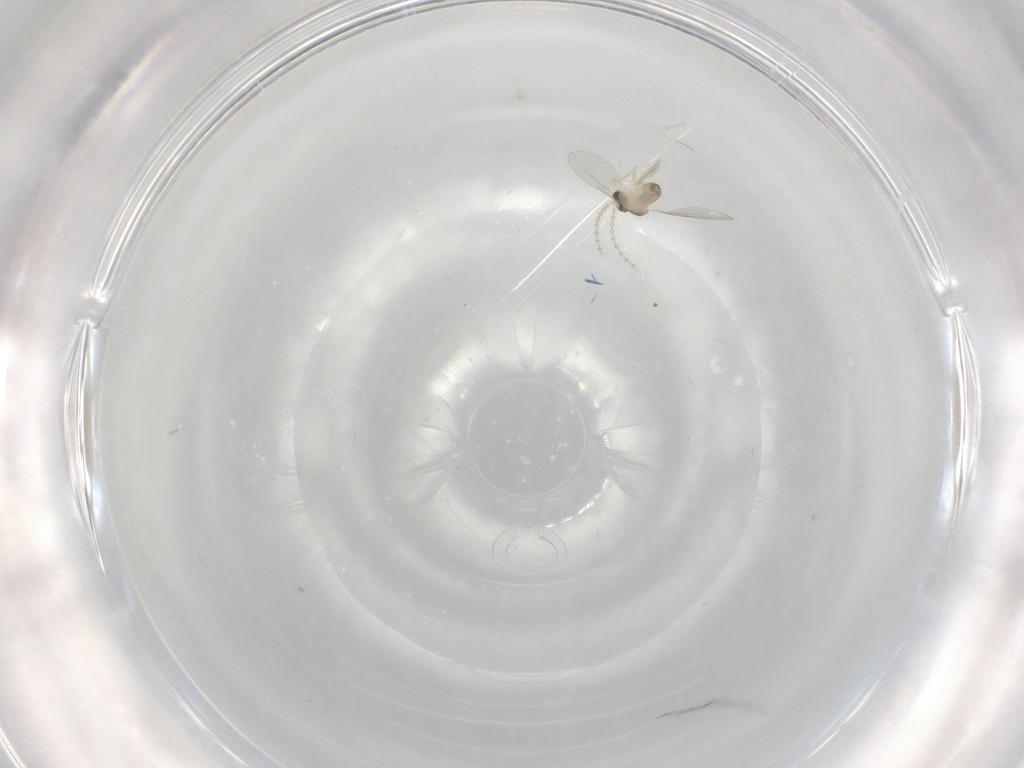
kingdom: Animalia
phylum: Arthropoda
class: Insecta
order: Diptera
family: Cecidomyiidae
